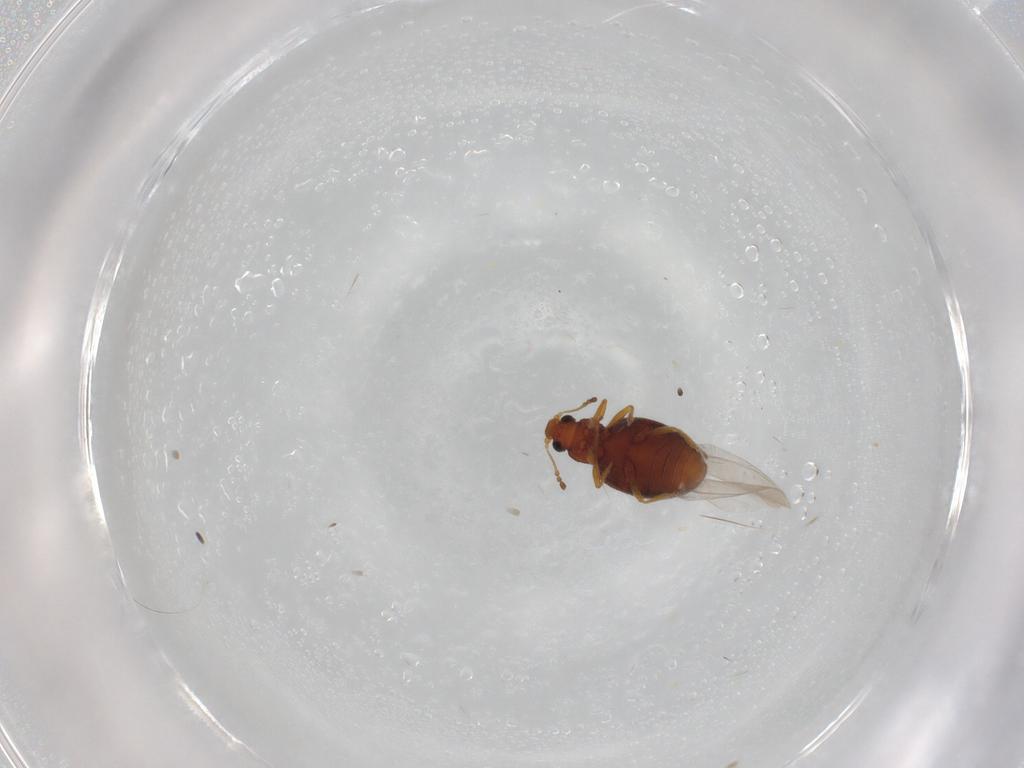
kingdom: Animalia
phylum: Arthropoda
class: Insecta
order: Coleoptera
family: Latridiidae
